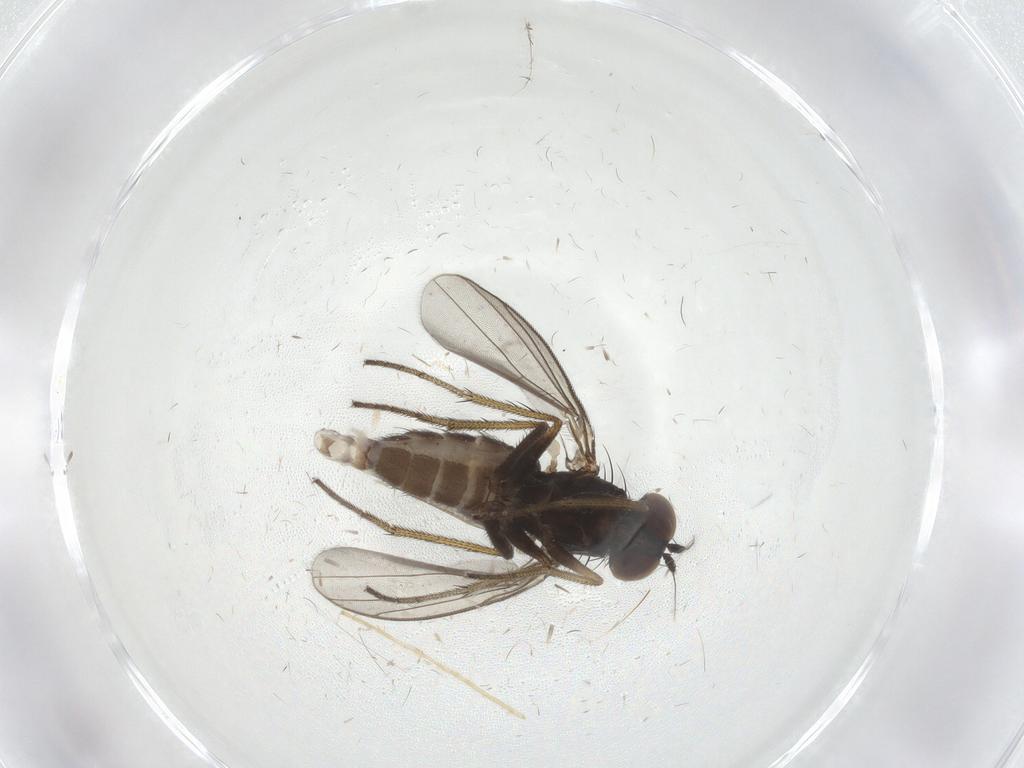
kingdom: Animalia
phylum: Arthropoda
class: Insecta
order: Diptera
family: Chironomidae
